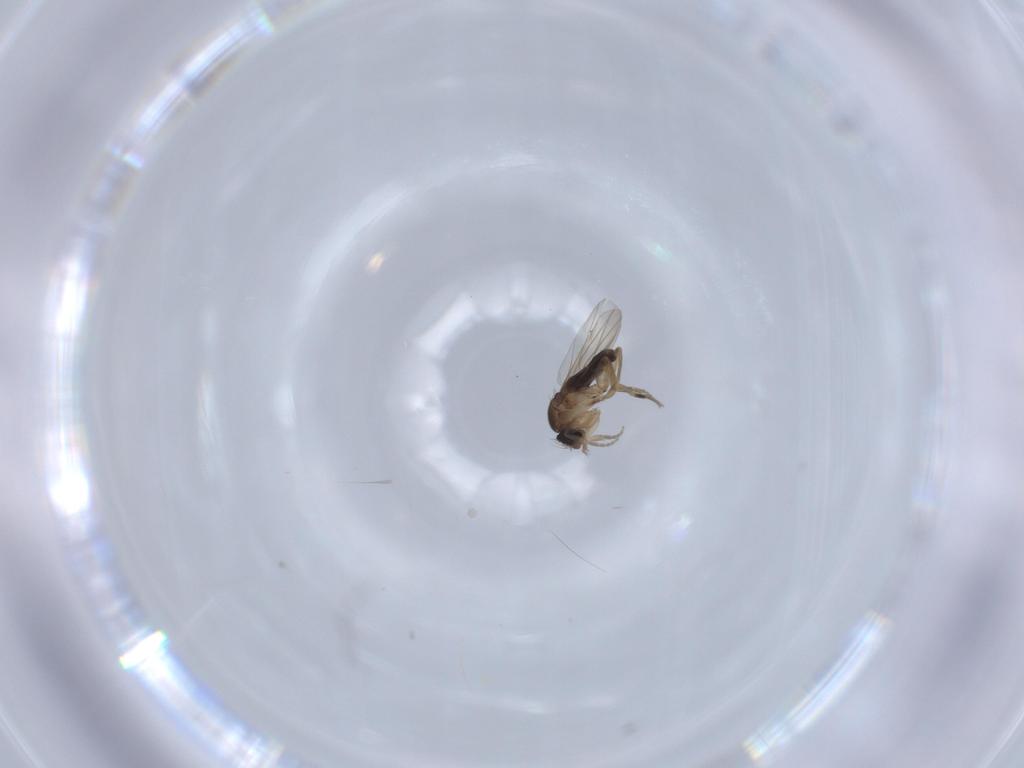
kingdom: Animalia
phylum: Arthropoda
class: Insecta
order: Diptera
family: Phoridae
